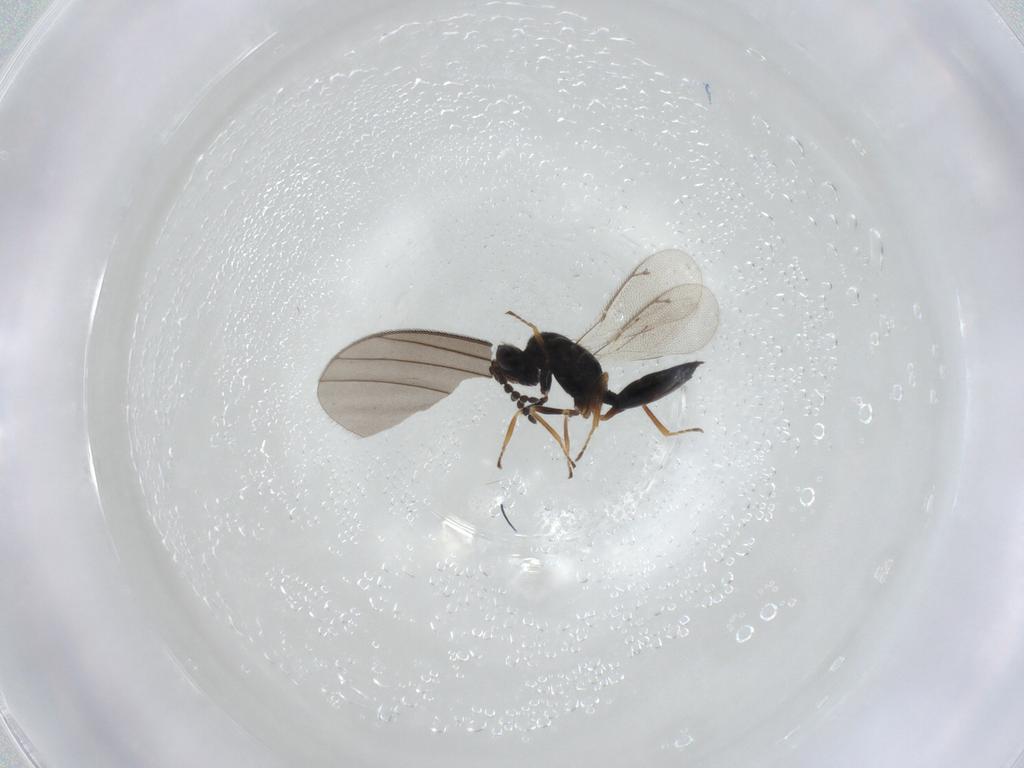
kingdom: Animalia
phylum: Arthropoda
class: Insecta
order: Hymenoptera
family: Eulophidae
